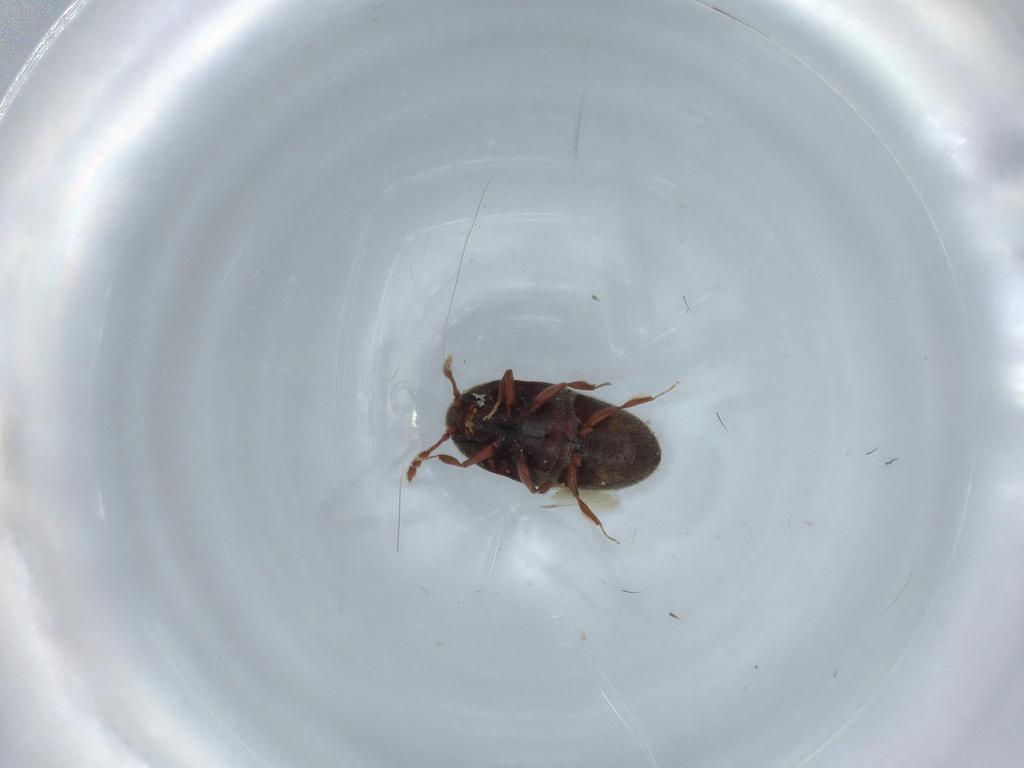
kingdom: Animalia
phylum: Arthropoda
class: Insecta
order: Coleoptera
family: Throscidae
